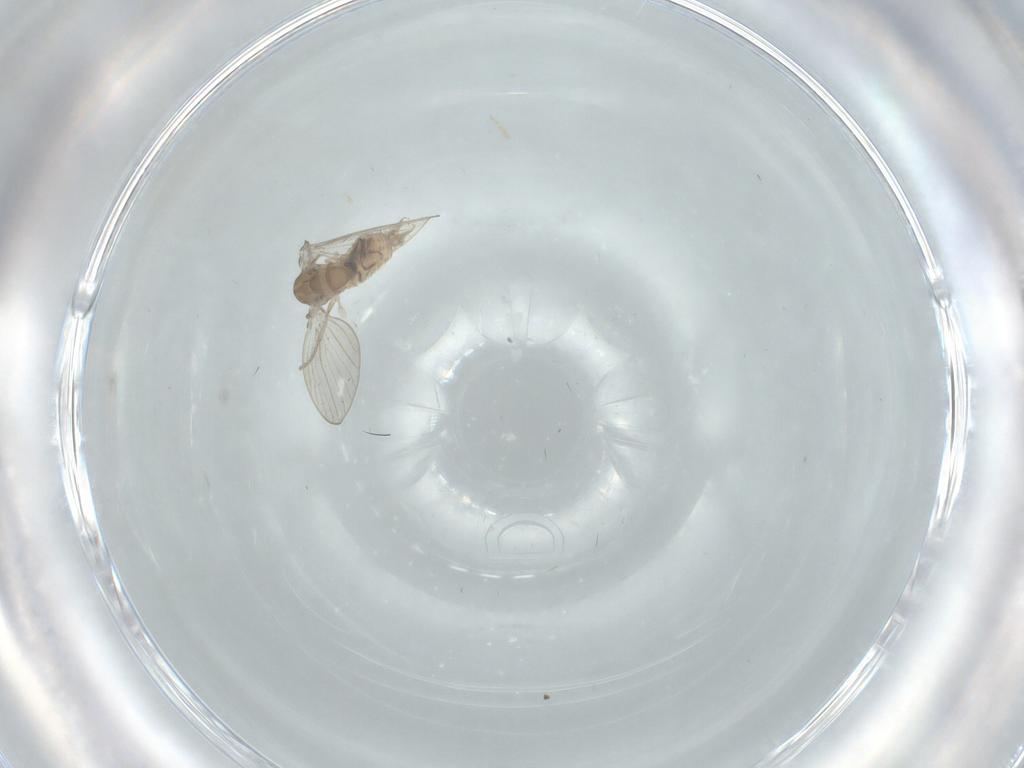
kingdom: Animalia
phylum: Arthropoda
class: Insecta
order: Diptera
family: Psychodidae
